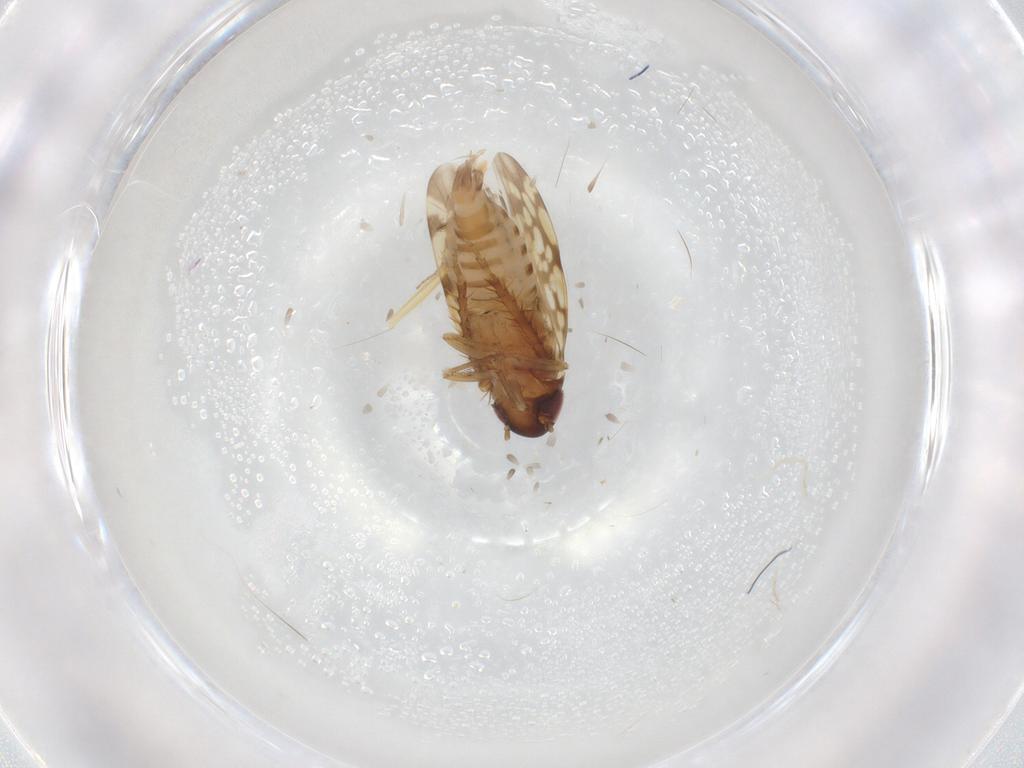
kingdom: Animalia
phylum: Arthropoda
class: Insecta
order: Hemiptera
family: Cicadellidae
